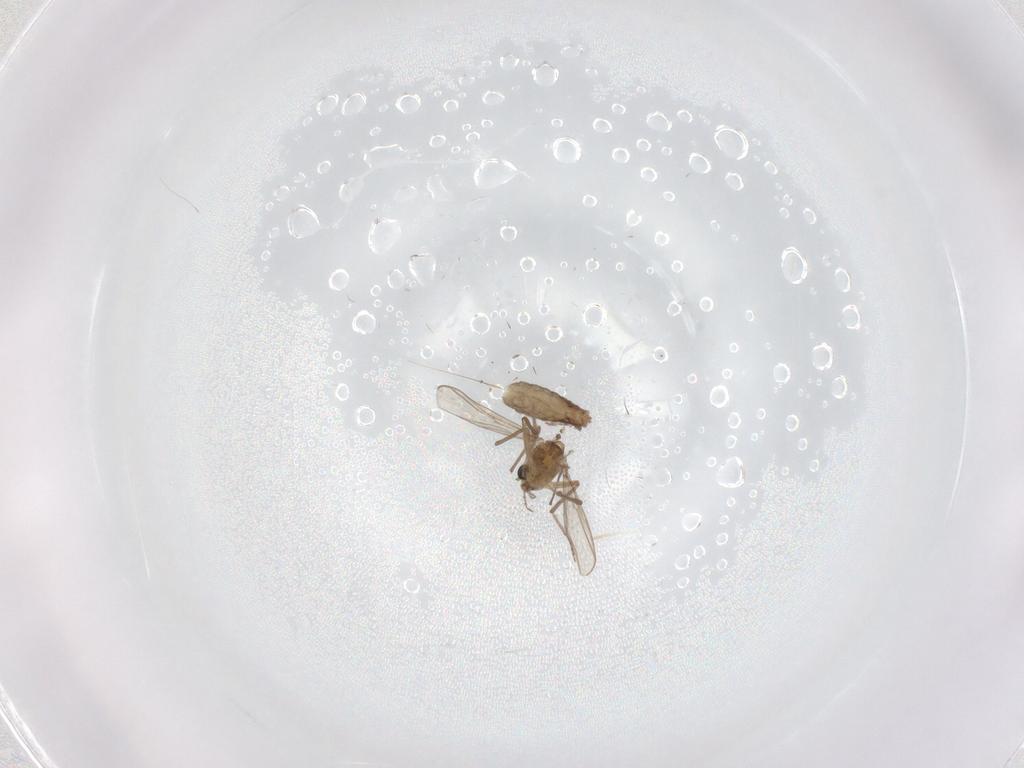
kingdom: Animalia
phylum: Arthropoda
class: Insecta
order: Diptera
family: Chironomidae
